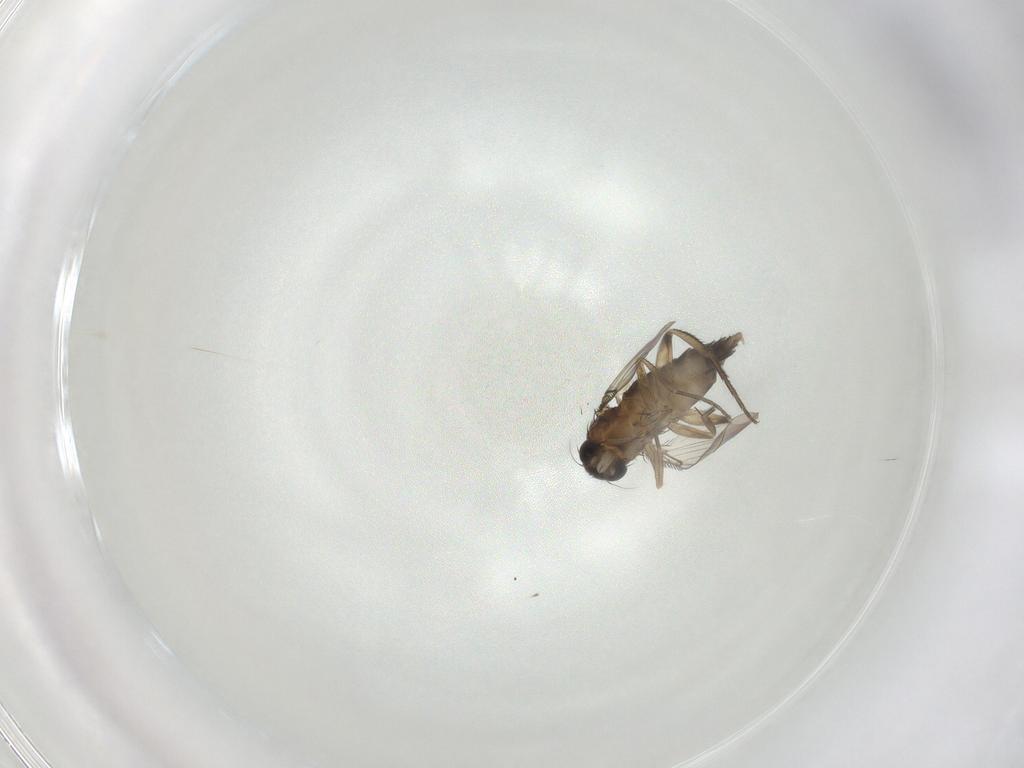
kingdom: Animalia
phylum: Arthropoda
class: Insecta
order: Diptera
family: Phoridae
